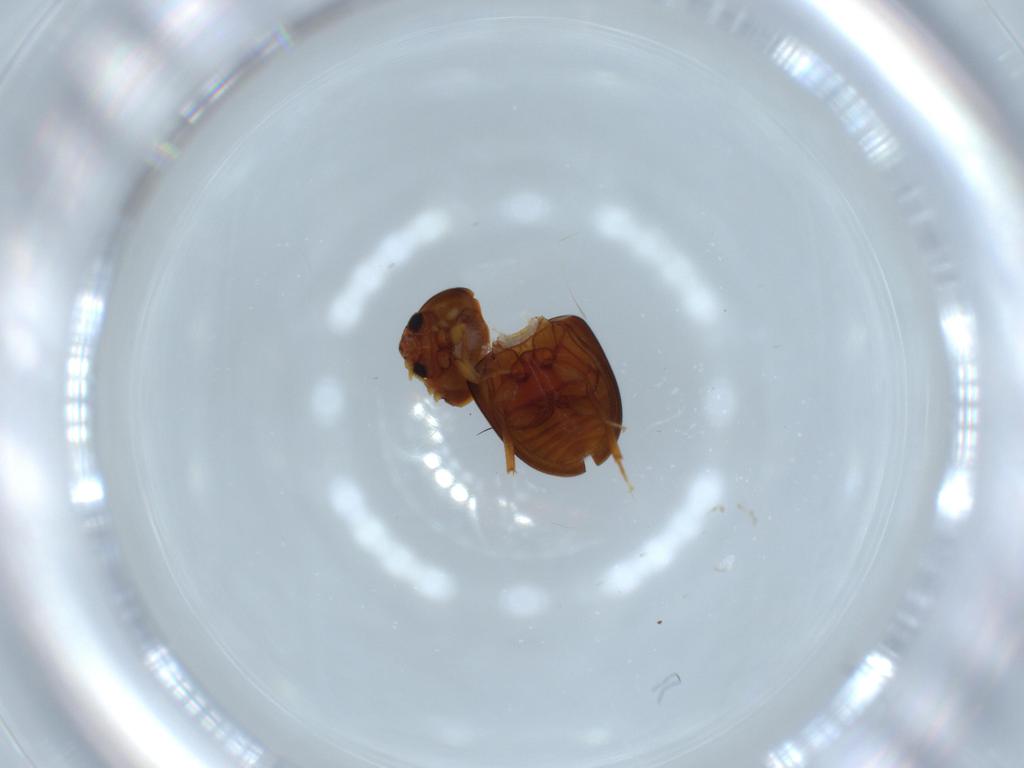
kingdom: Animalia
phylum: Arthropoda
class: Insecta
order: Coleoptera
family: Phalacridae
